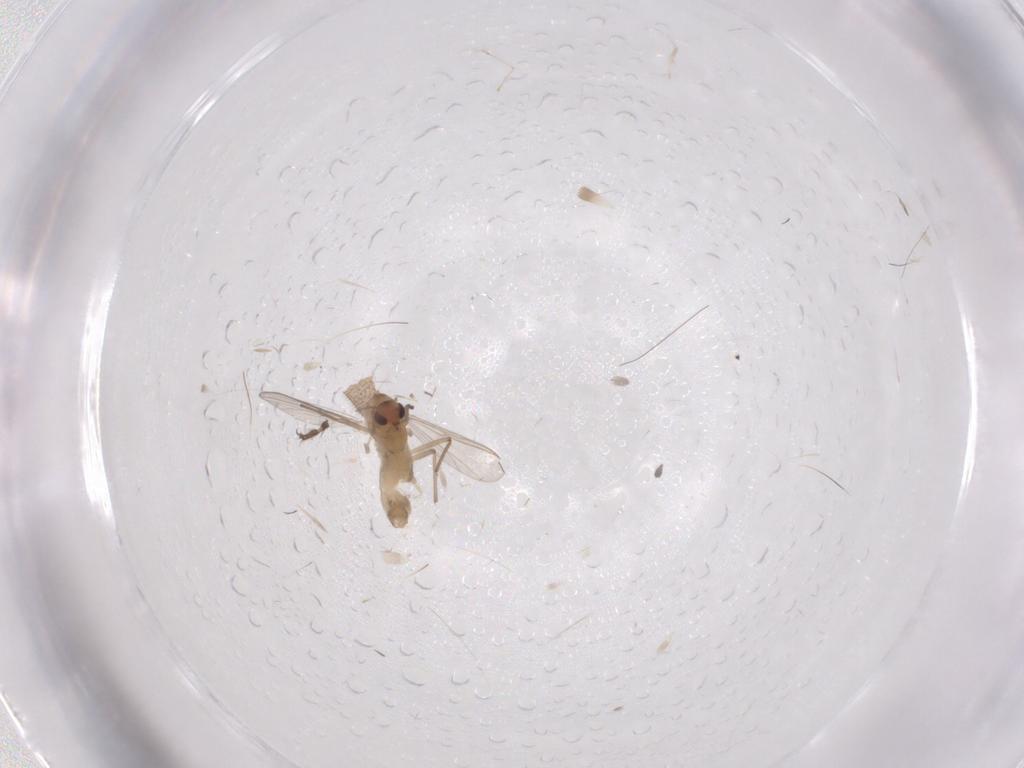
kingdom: Animalia
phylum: Arthropoda
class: Insecta
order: Diptera
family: Chironomidae
